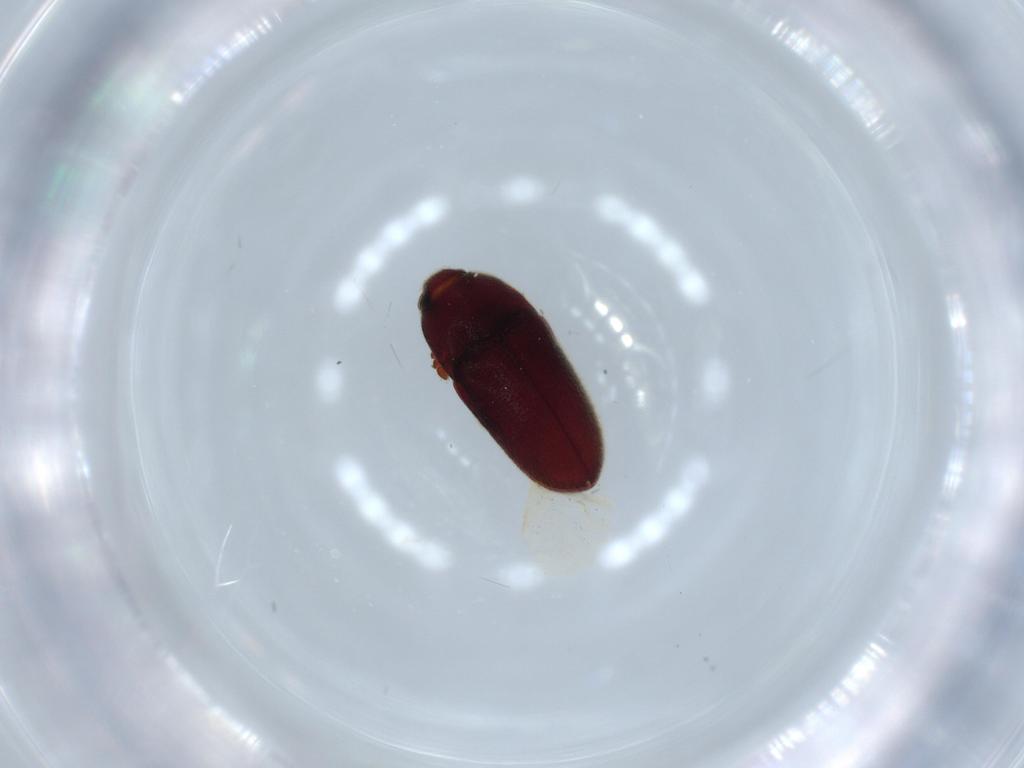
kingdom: Animalia
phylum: Arthropoda
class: Insecta
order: Coleoptera
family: Throscidae
